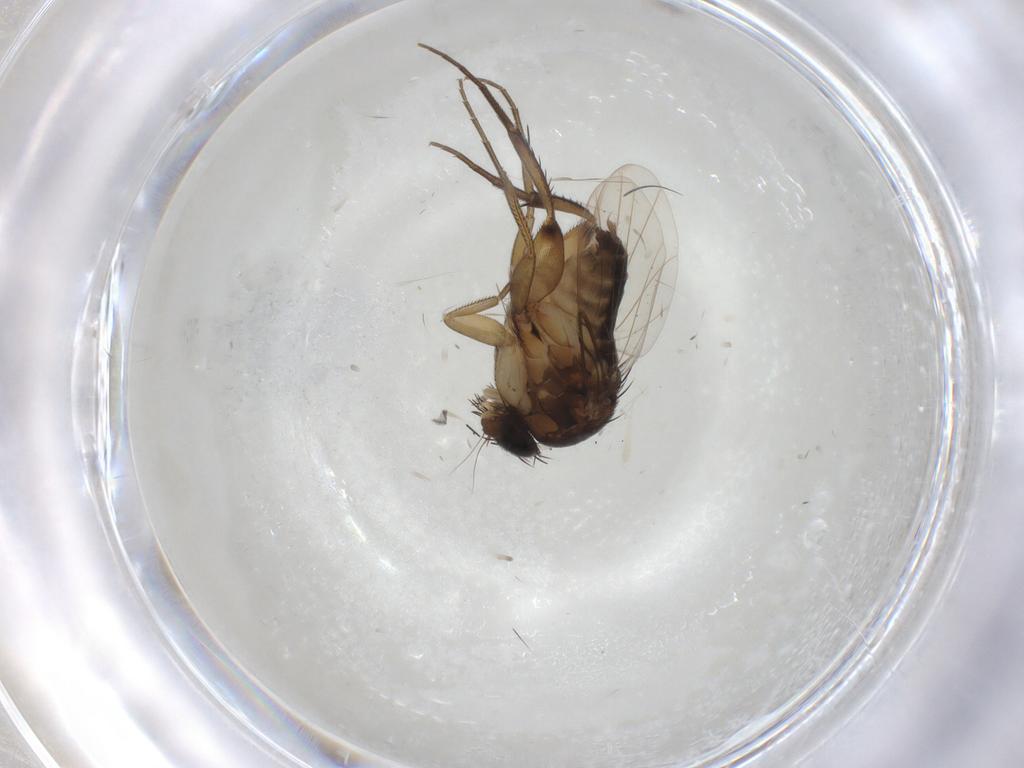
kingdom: Animalia
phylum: Arthropoda
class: Insecta
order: Diptera
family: Phoridae
